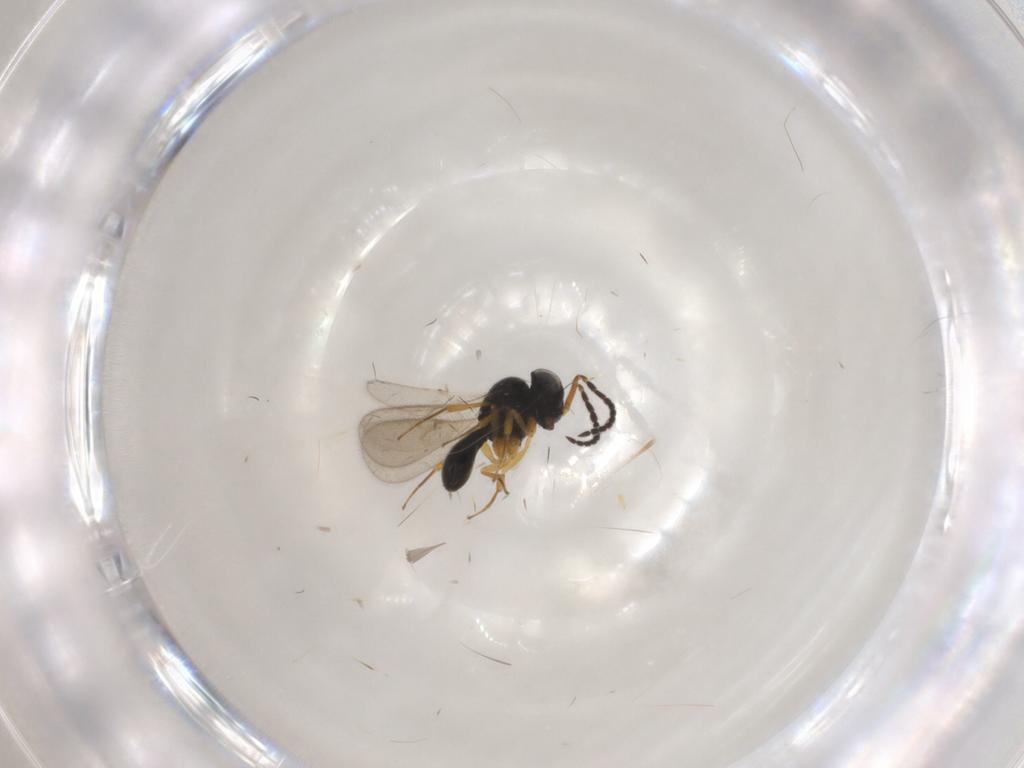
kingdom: Animalia
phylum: Arthropoda
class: Insecta
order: Hymenoptera
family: Scelionidae
